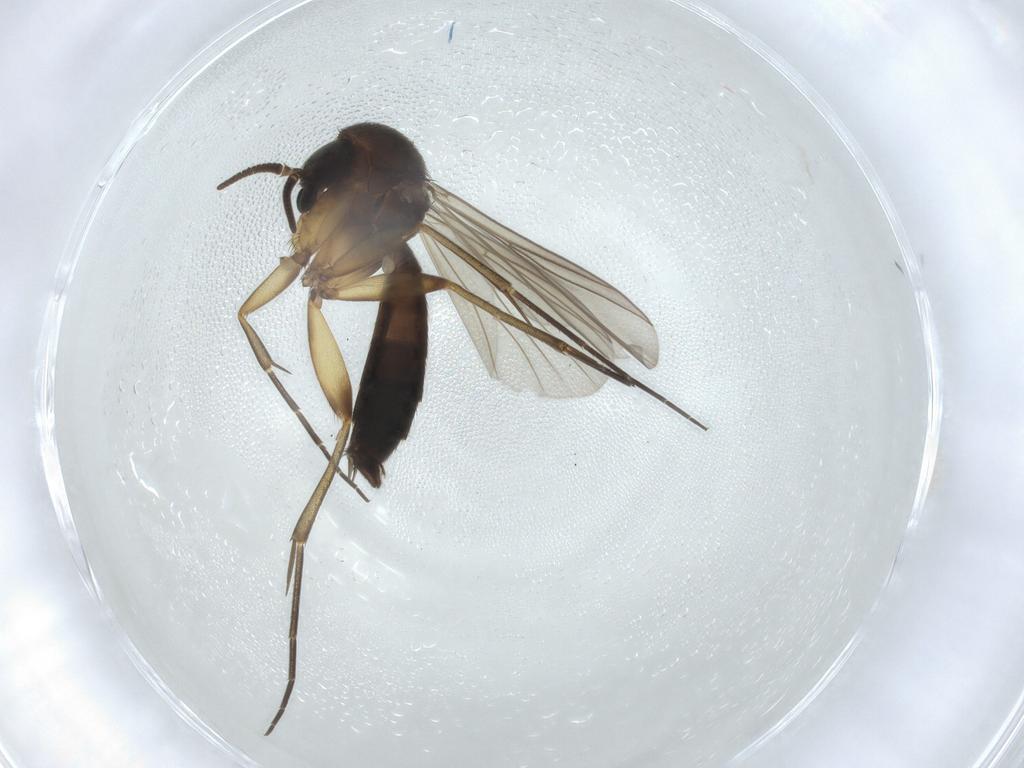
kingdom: Animalia
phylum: Arthropoda
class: Insecta
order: Diptera
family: Mycetophilidae
